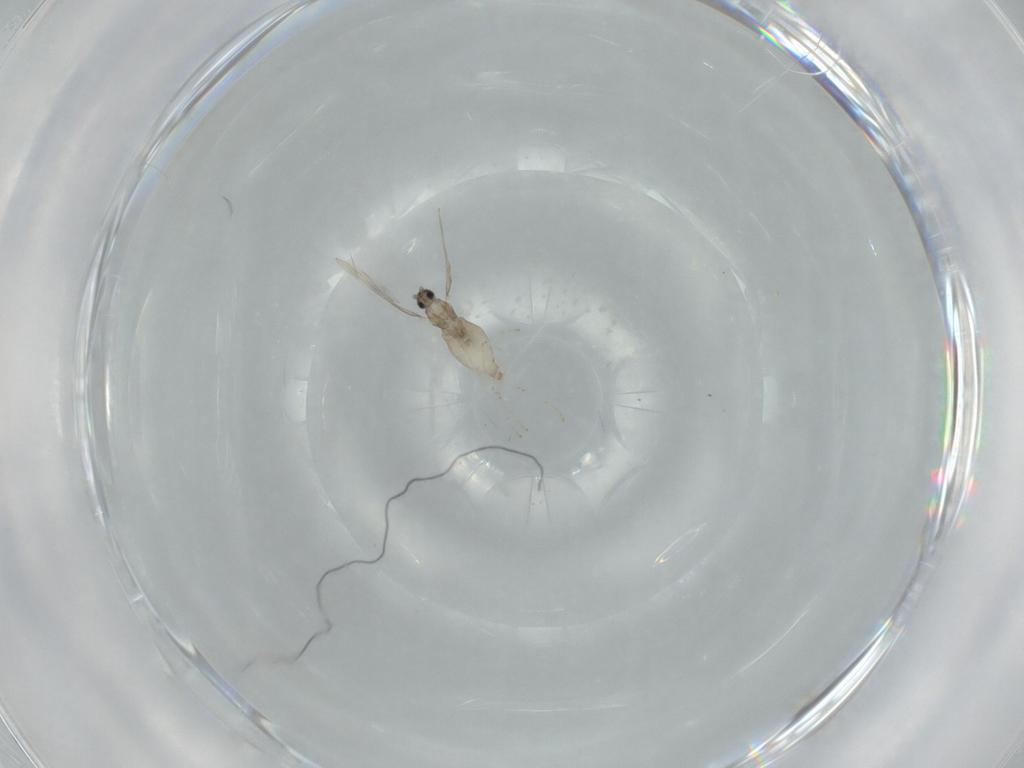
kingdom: Animalia
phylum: Arthropoda
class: Insecta
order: Diptera
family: Cecidomyiidae
